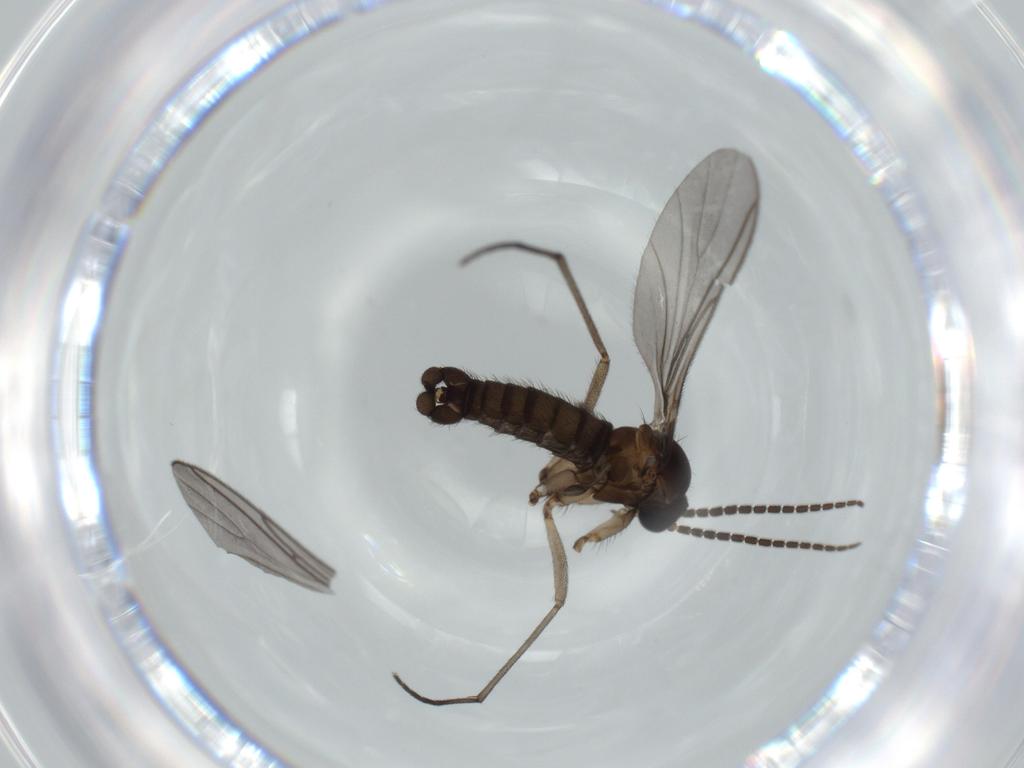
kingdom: Animalia
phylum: Arthropoda
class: Insecta
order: Diptera
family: Sciaridae
